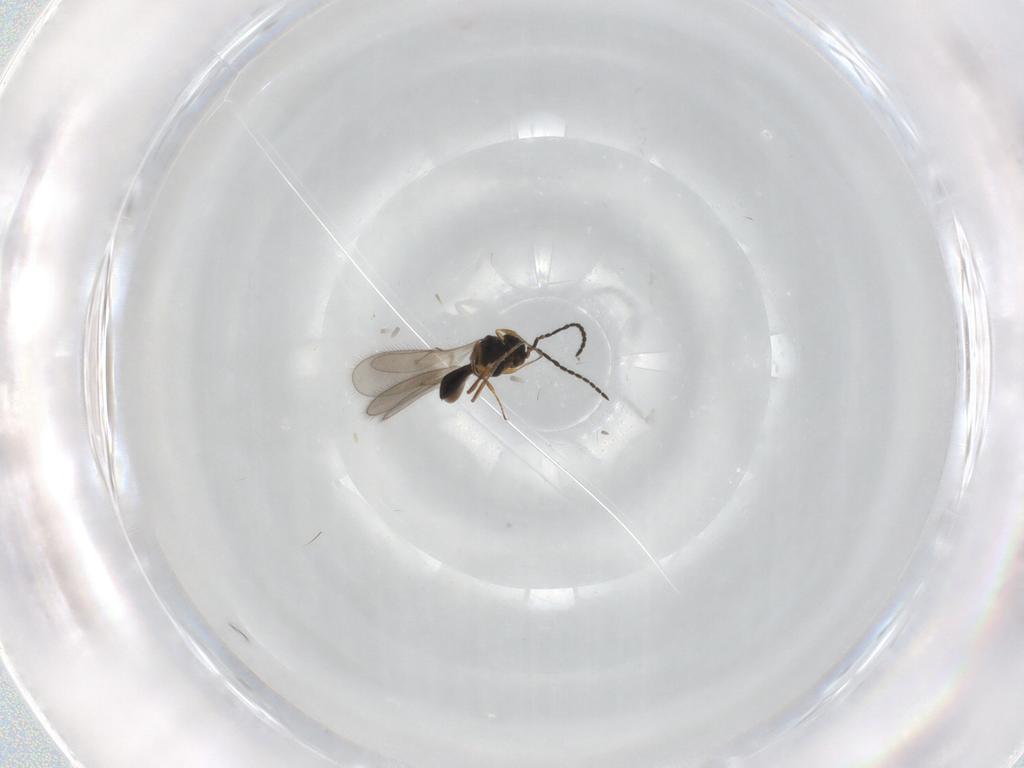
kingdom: Animalia
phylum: Arthropoda
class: Insecta
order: Hymenoptera
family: Scelionidae
